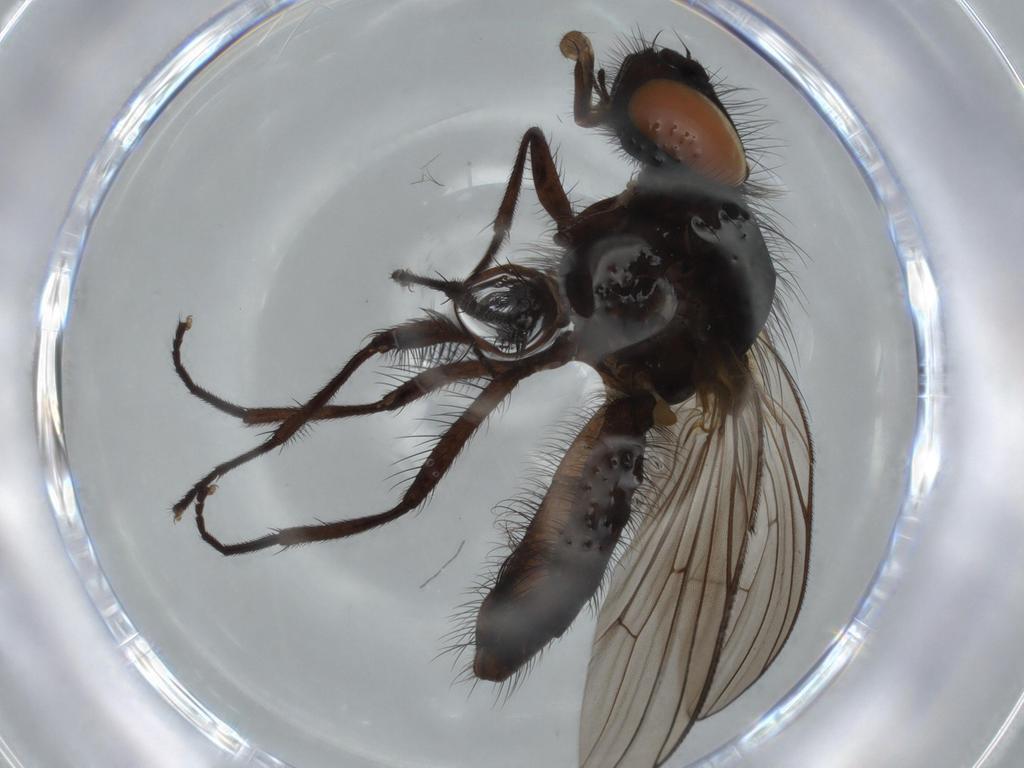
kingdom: Animalia
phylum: Arthropoda
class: Insecta
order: Diptera
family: Fannia
